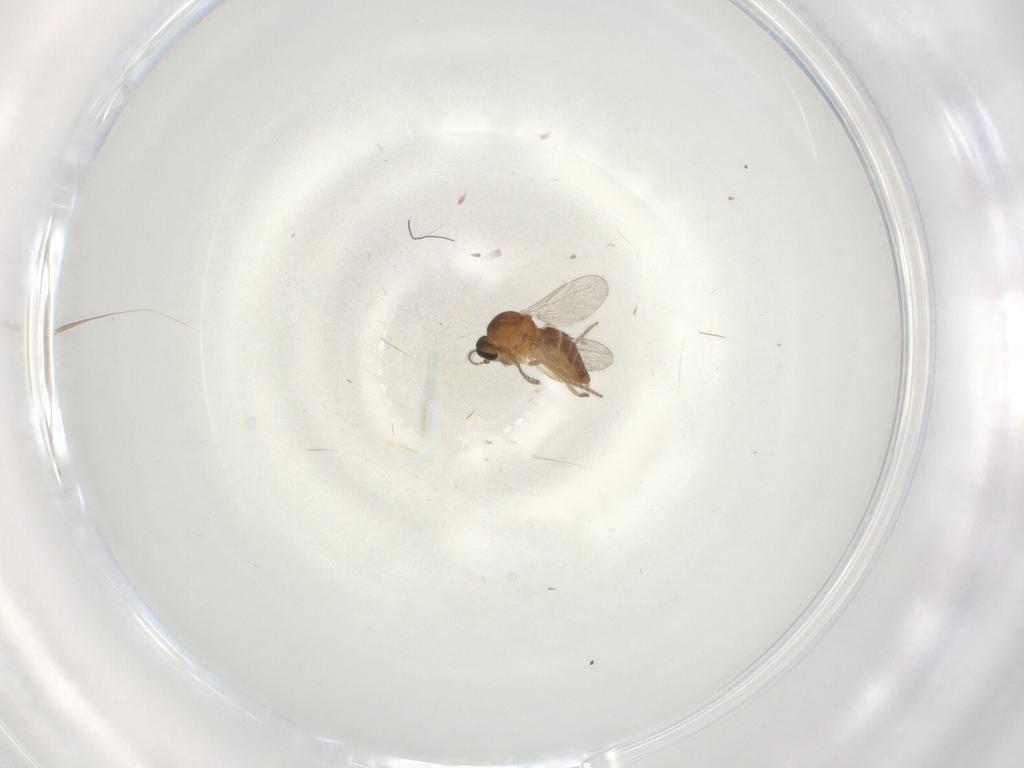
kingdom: Animalia
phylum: Arthropoda
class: Insecta
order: Diptera
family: Ceratopogonidae
